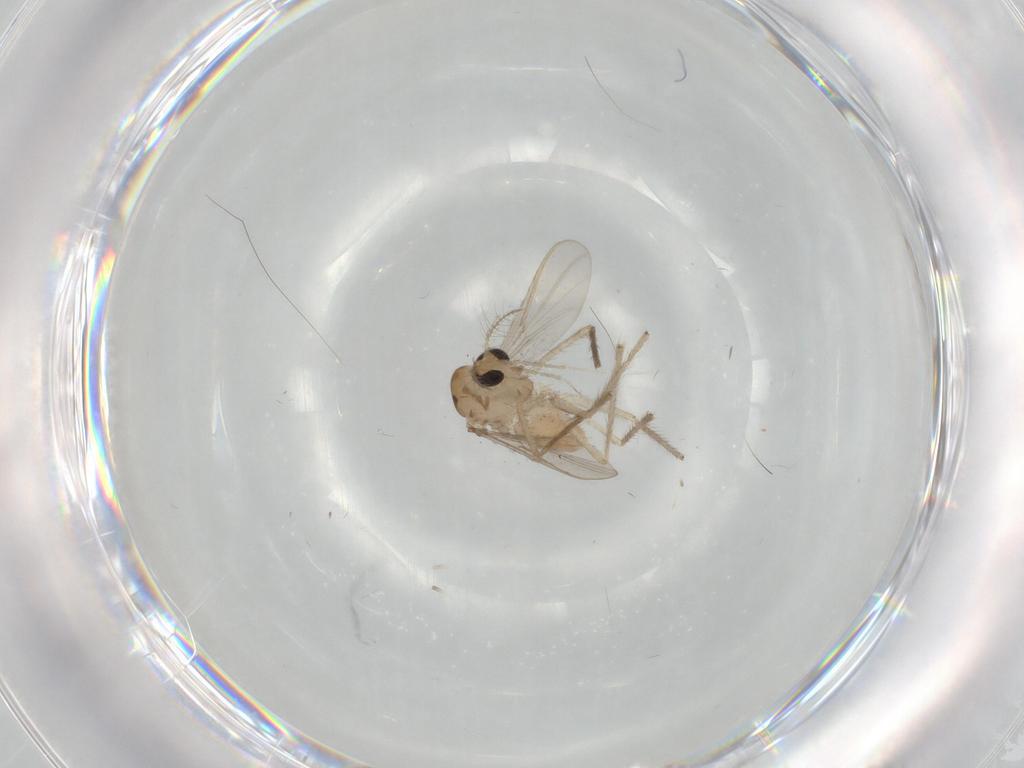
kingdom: Animalia
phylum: Arthropoda
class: Insecta
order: Diptera
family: Chironomidae
